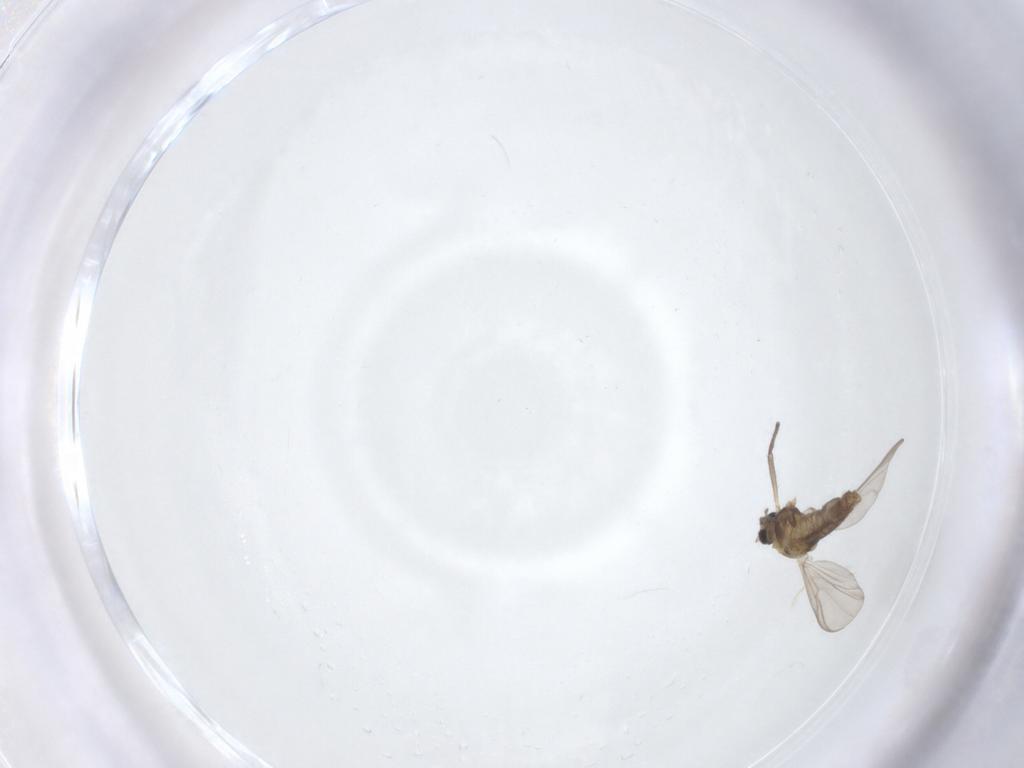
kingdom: Animalia
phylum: Arthropoda
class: Insecta
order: Diptera
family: Chironomidae
